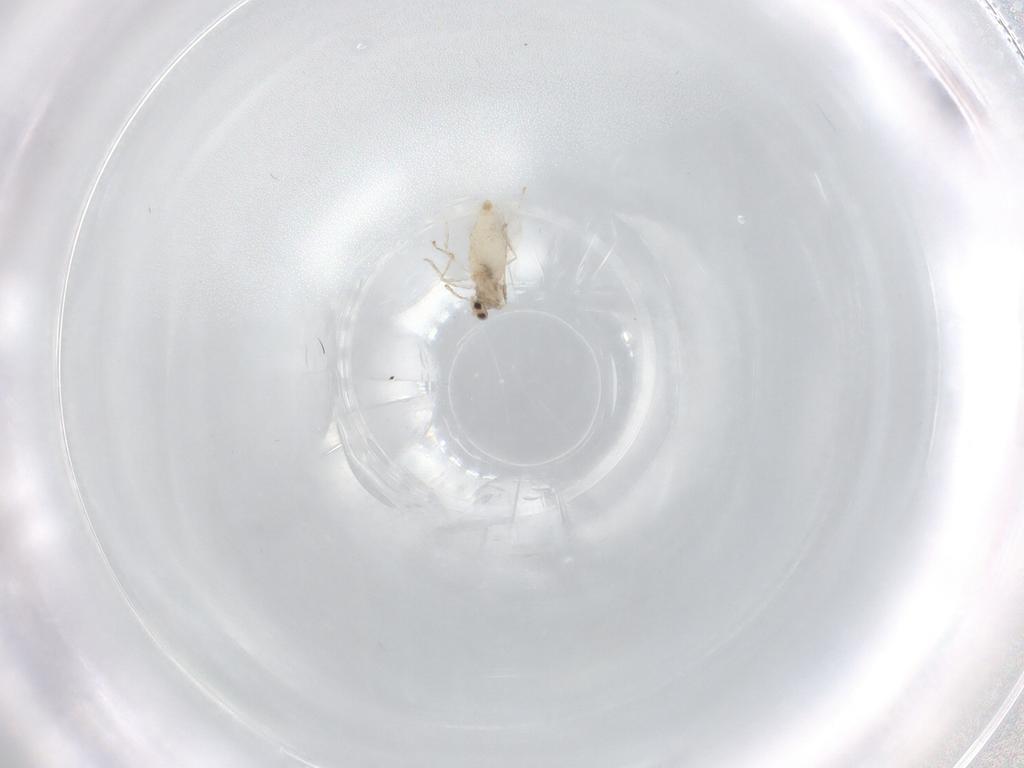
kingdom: Animalia
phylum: Arthropoda
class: Insecta
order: Diptera
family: Cecidomyiidae
